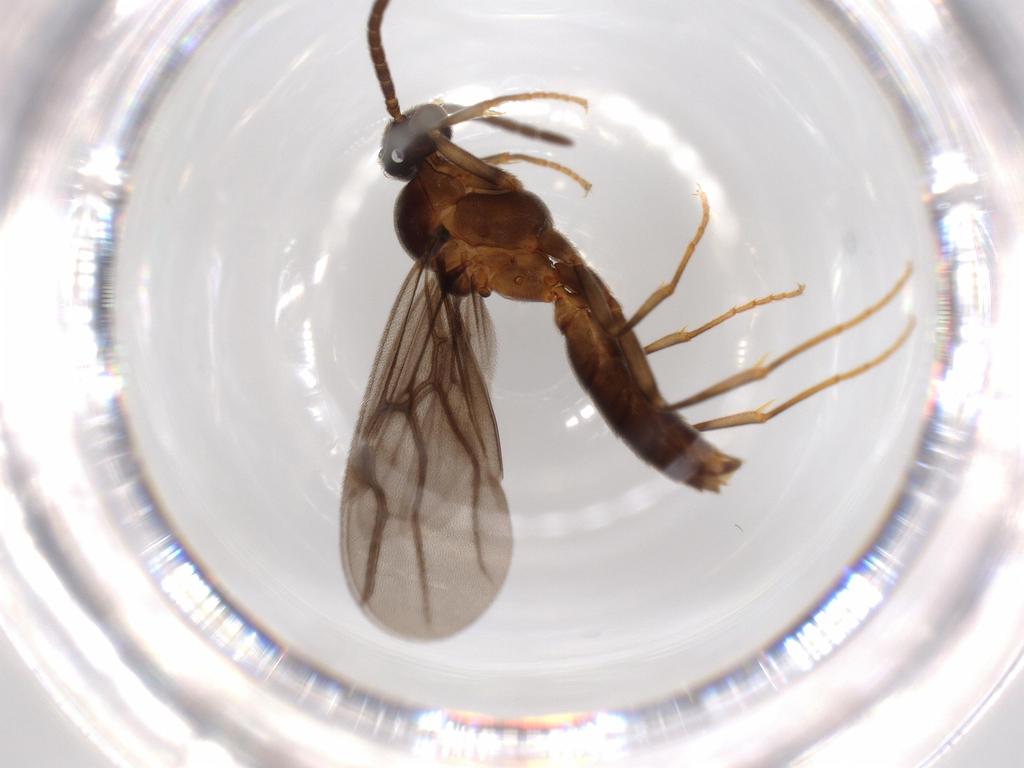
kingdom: Animalia
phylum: Arthropoda
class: Insecta
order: Hymenoptera
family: Formicidae
